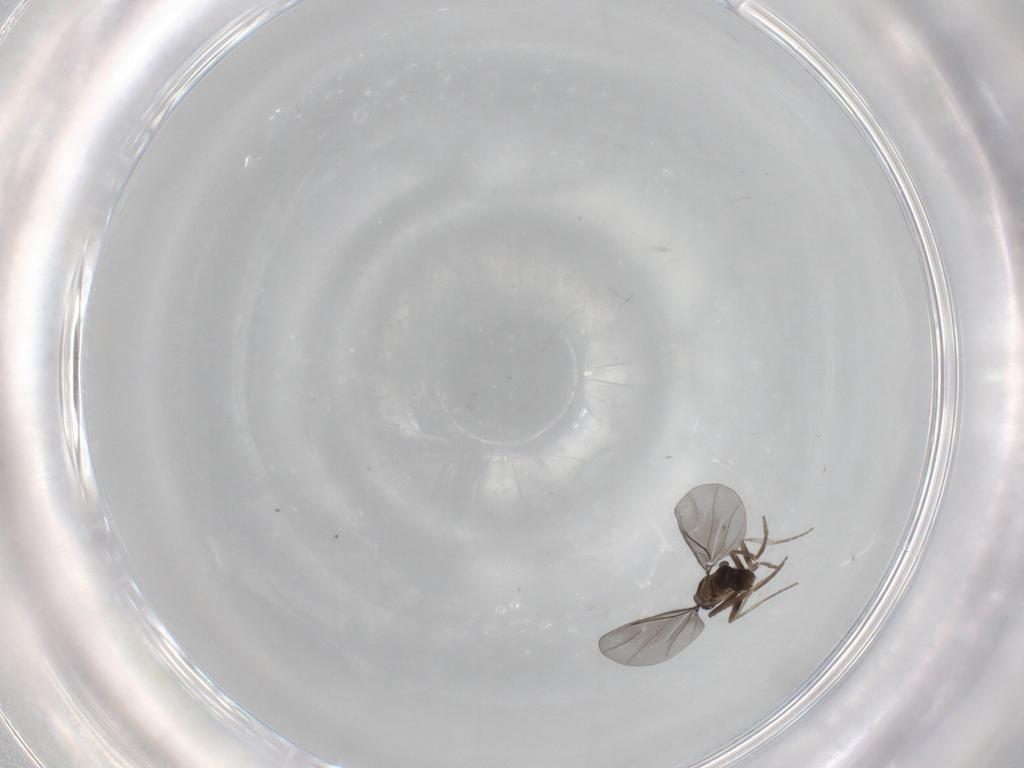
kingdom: Animalia
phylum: Arthropoda
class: Insecta
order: Diptera
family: Phoridae
